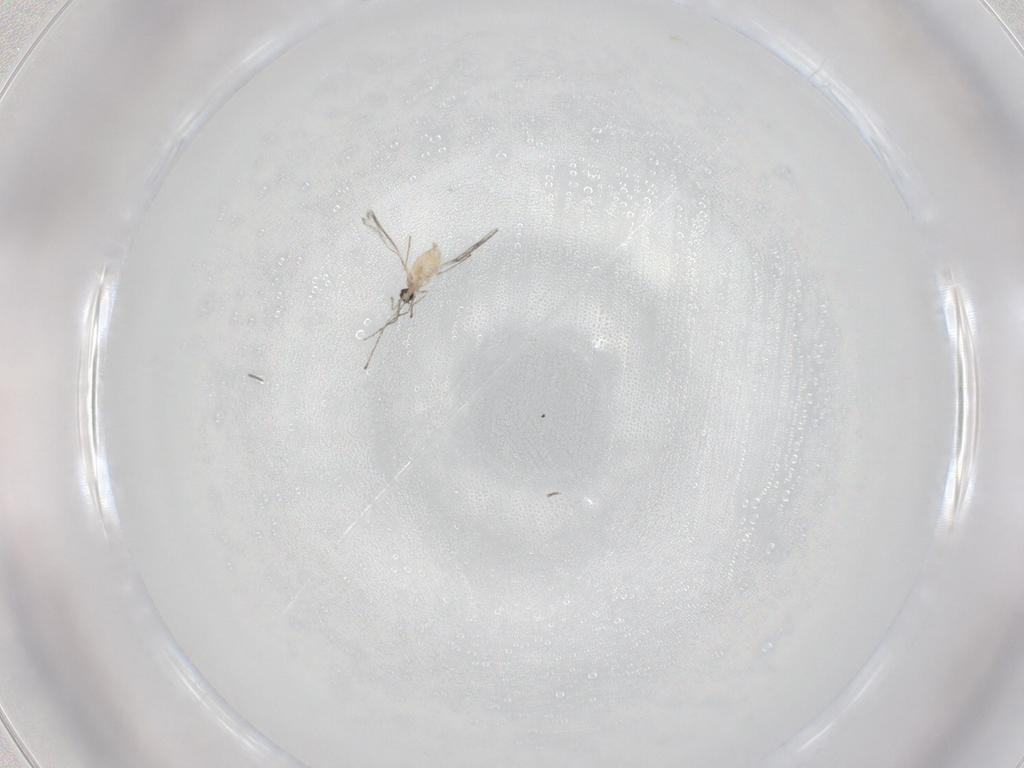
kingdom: Animalia
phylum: Arthropoda
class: Insecta
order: Diptera
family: Cecidomyiidae
